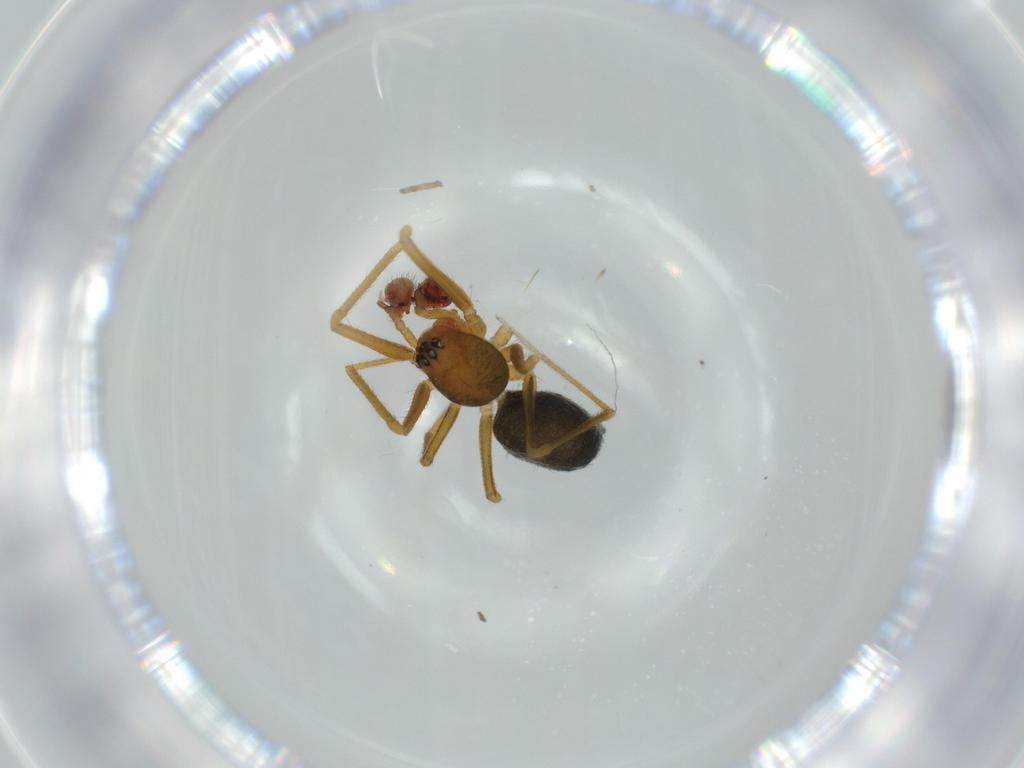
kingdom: Animalia
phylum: Arthropoda
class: Arachnida
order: Araneae
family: Linyphiidae
